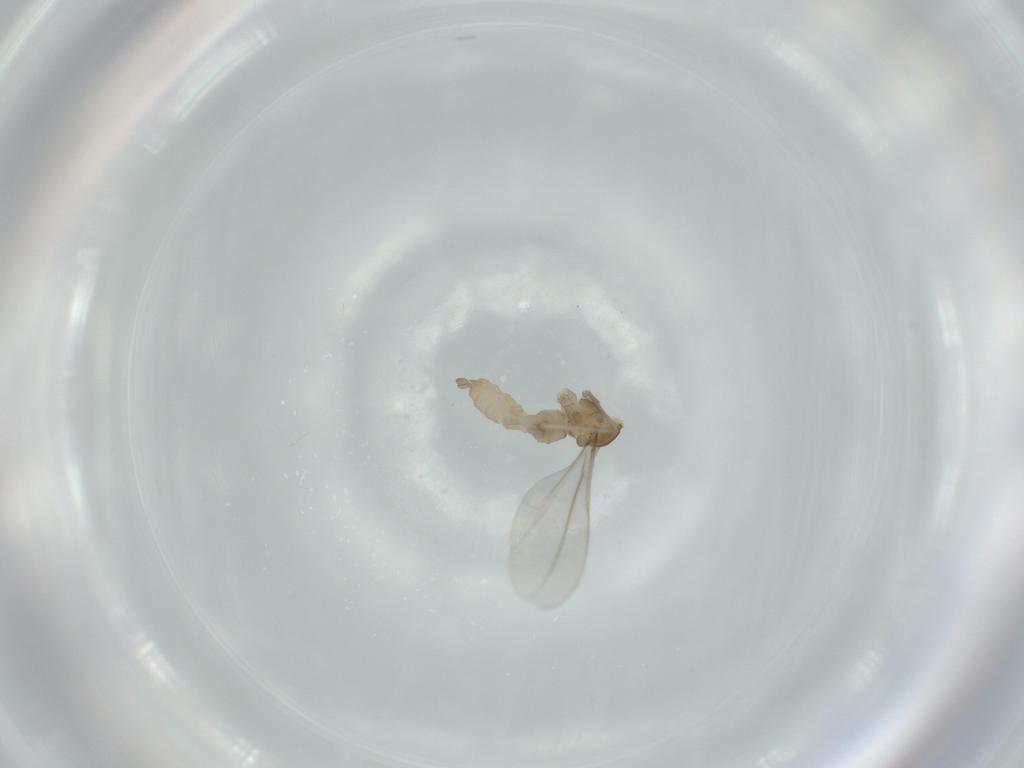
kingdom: Animalia
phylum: Arthropoda
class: Insecta
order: Diptera
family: Cecidomyiidae
